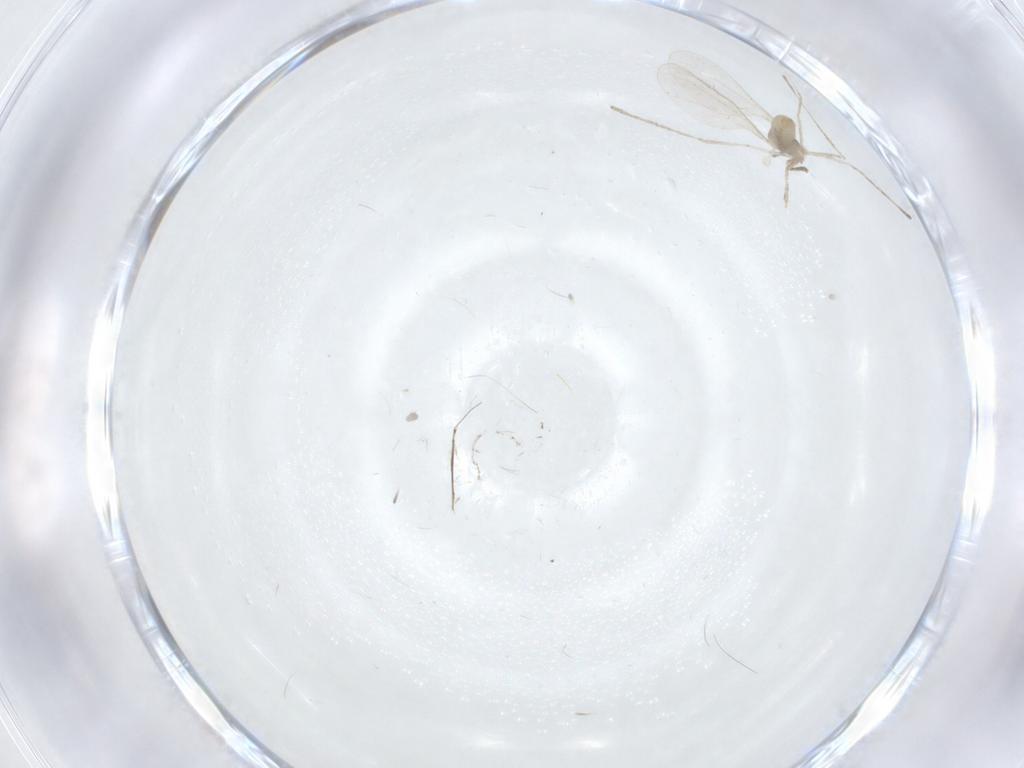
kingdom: Animalia
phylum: Arthropoda
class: Insecta
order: Diptera
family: Cecidomyiidae
